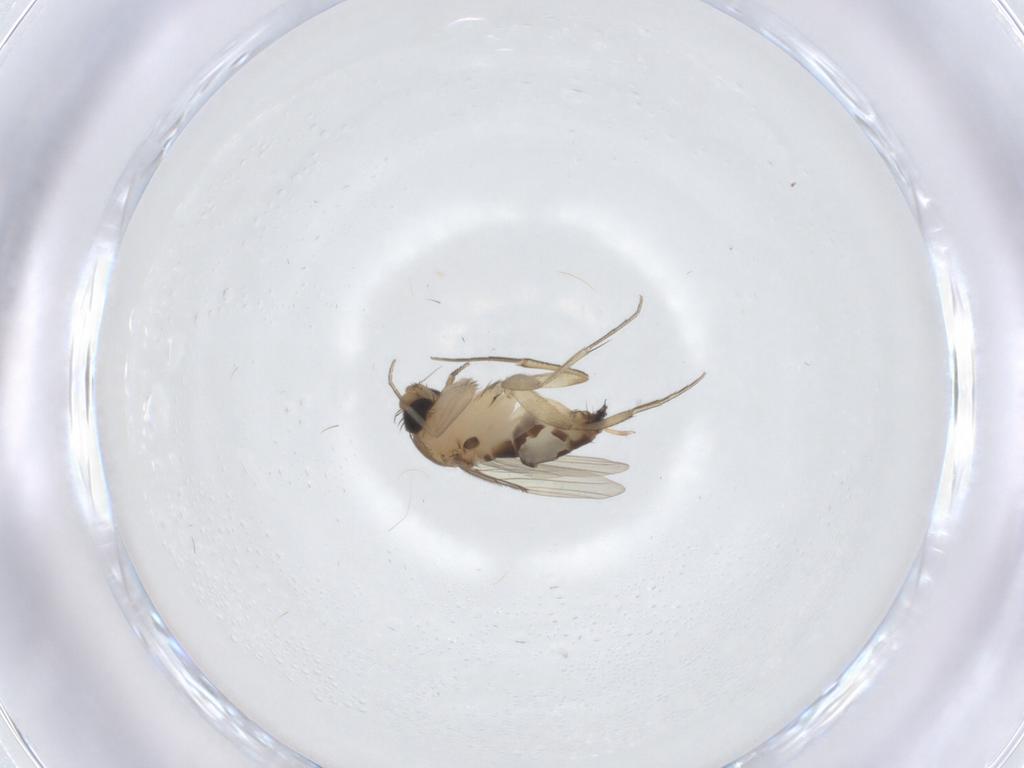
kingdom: Animalia
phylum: Arthropoda
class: Insecta
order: Diptera
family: Phoridae
